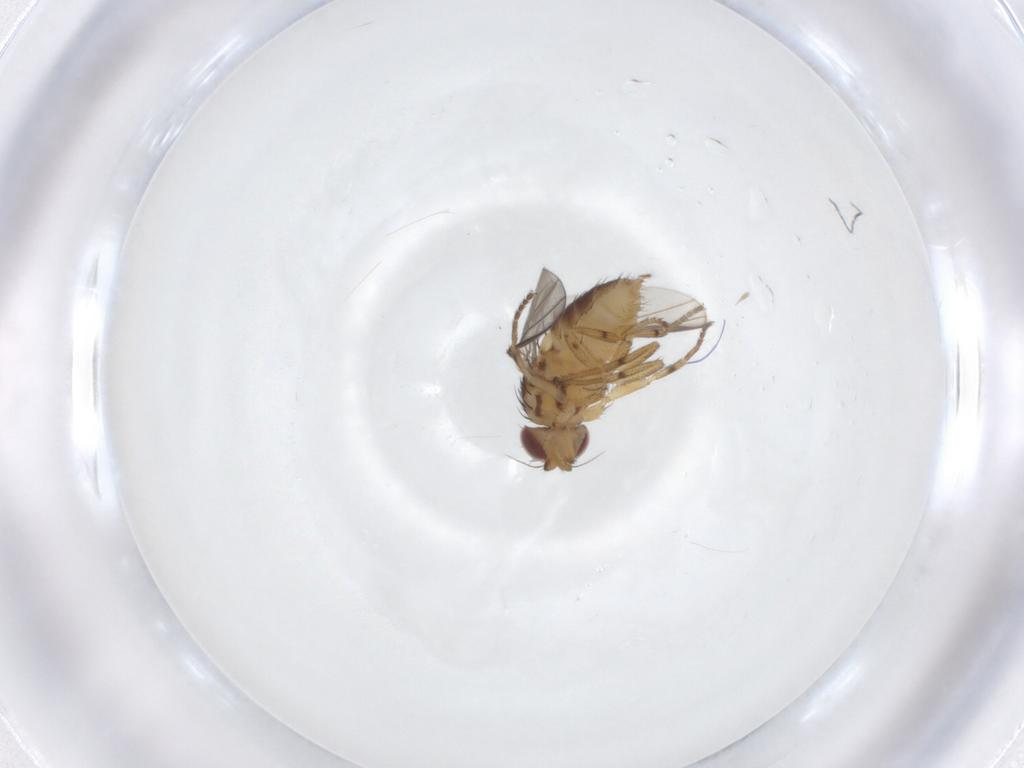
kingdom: Animalia
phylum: Arthropoda
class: Insecta
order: Diptera
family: Chloropidae
